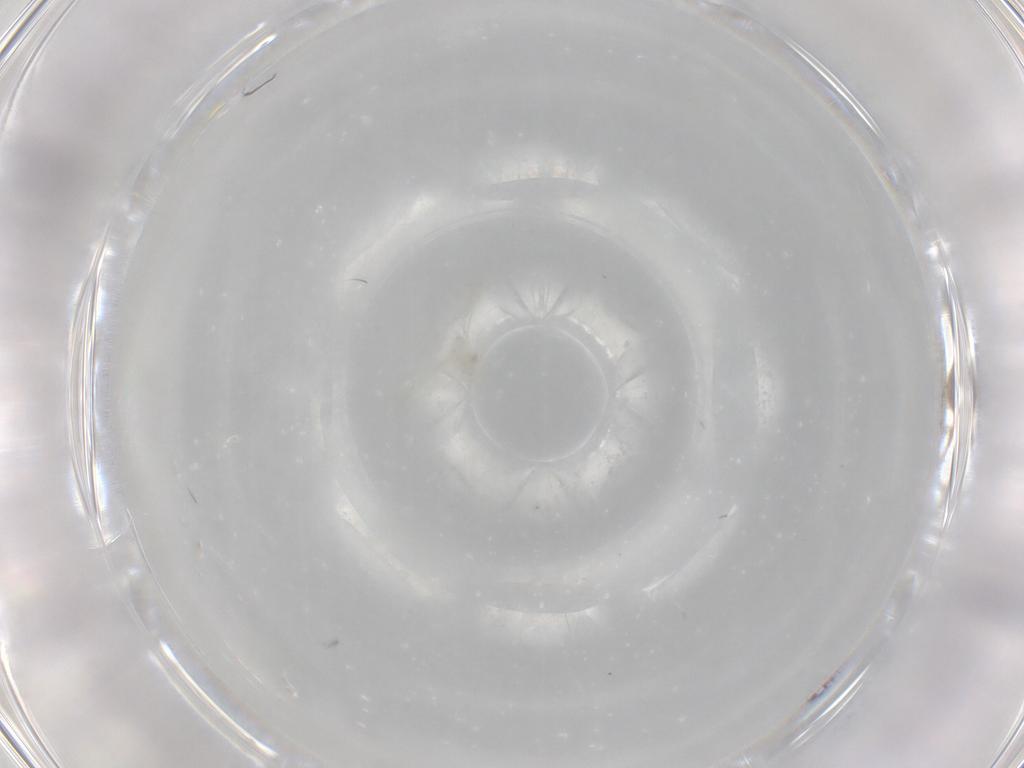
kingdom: Animalia
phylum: Arthropoda
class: Insecta
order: Hemiptera
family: Aleyrodidae
